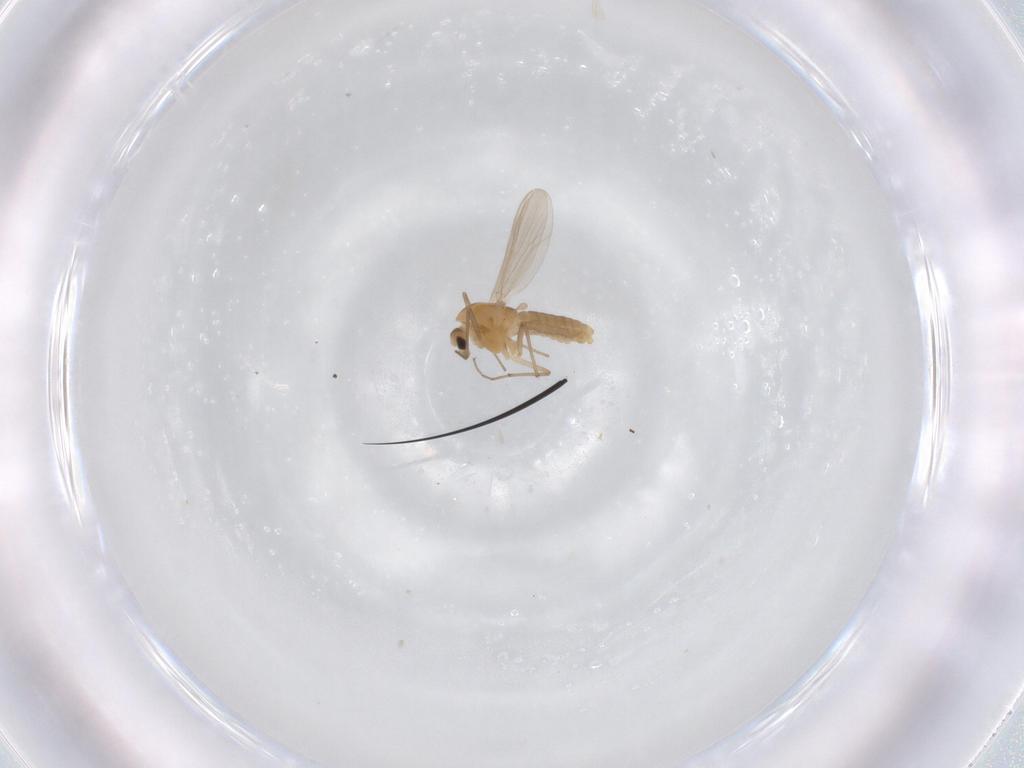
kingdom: Animalia
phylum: Arthropoda
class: Insecta
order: Diptera
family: Chironomidae
